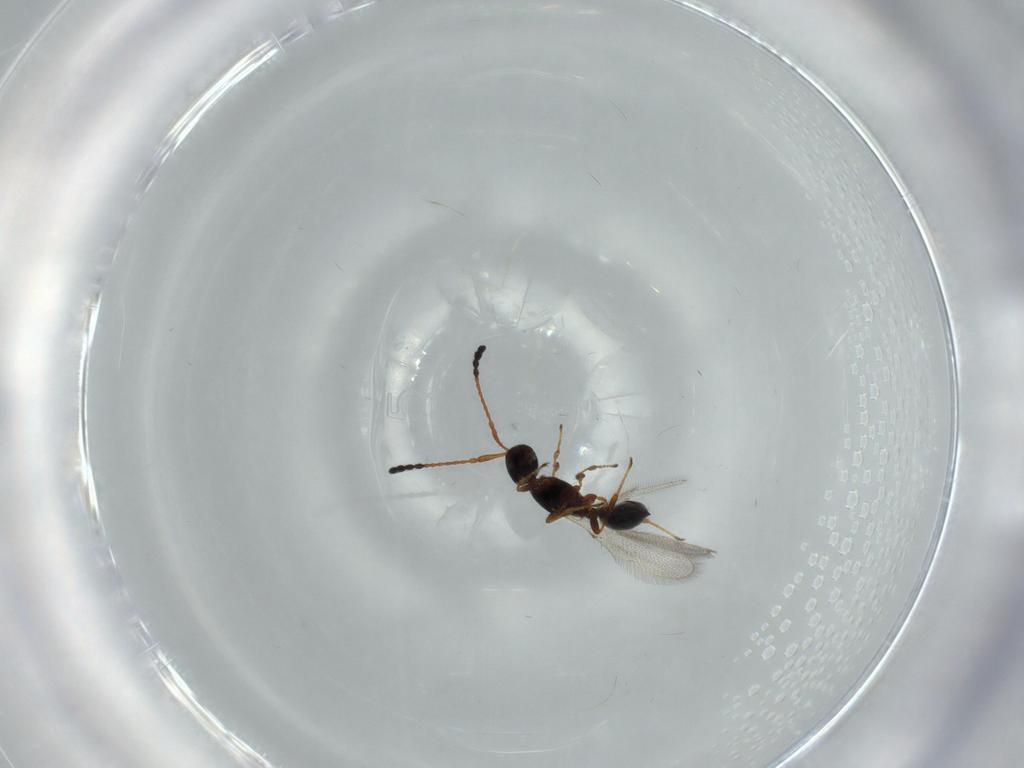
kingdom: Animalia
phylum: Arthropoda
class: Insecta
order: Hymenoptera
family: Diapriidae
